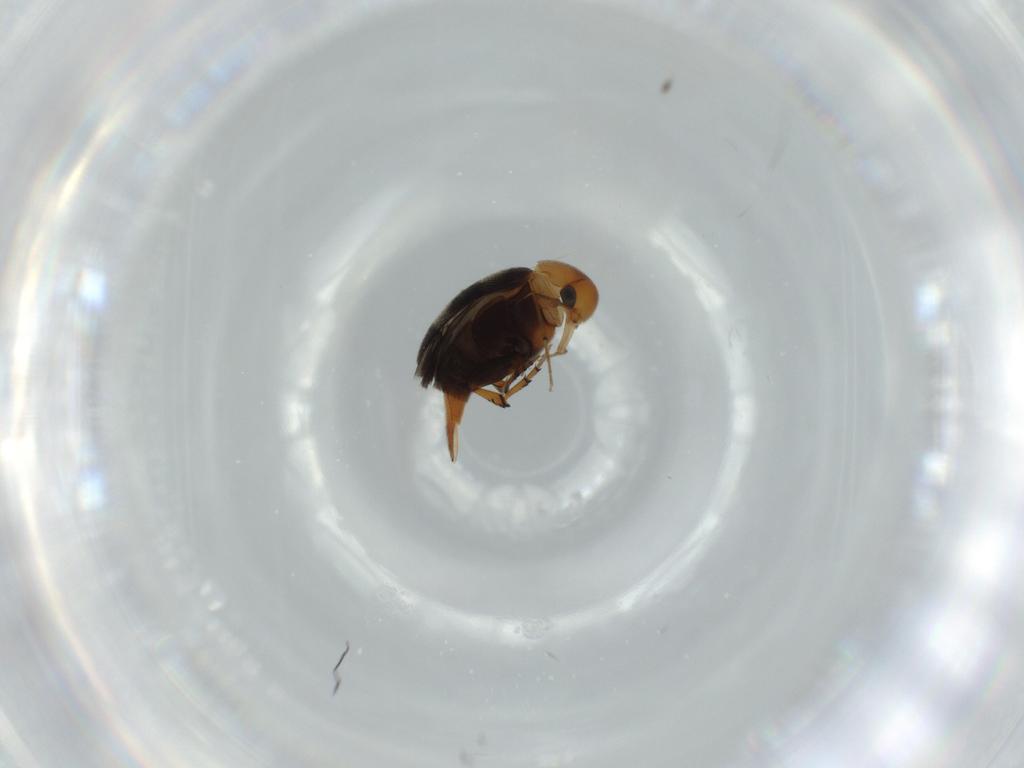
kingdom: Animalia
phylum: Arthropoda
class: Insecta
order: Coleoptera
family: Mordellidae
